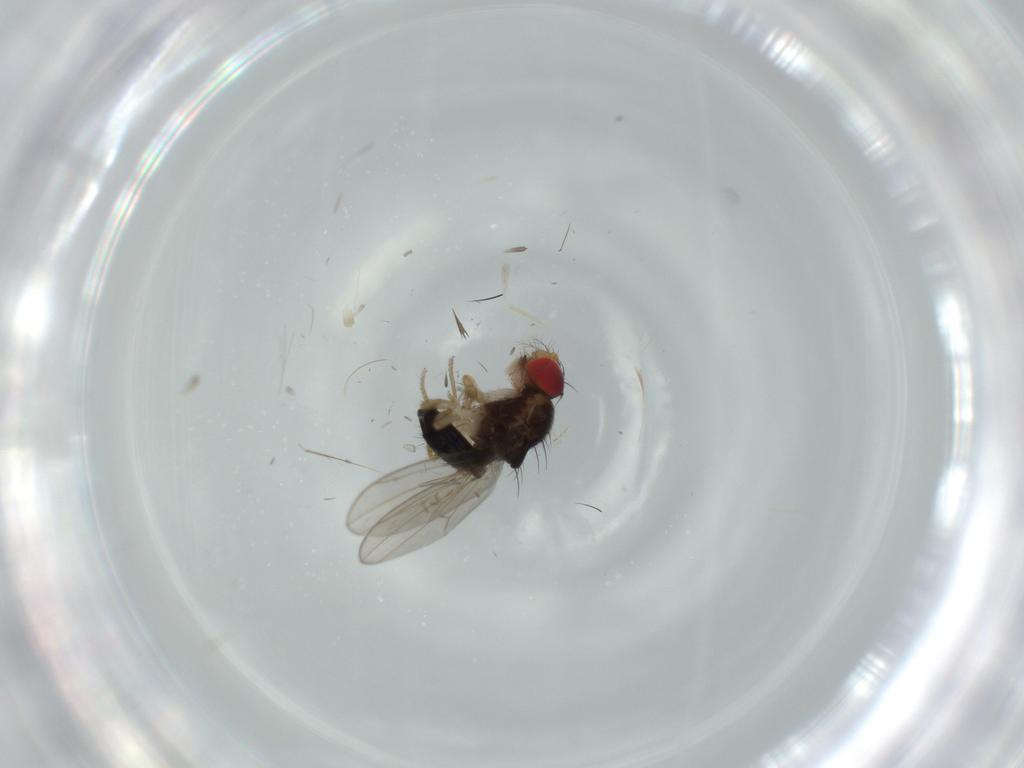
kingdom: Animalia
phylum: Arthropoda
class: Insecta
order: Diptera
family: Drosophilidae
